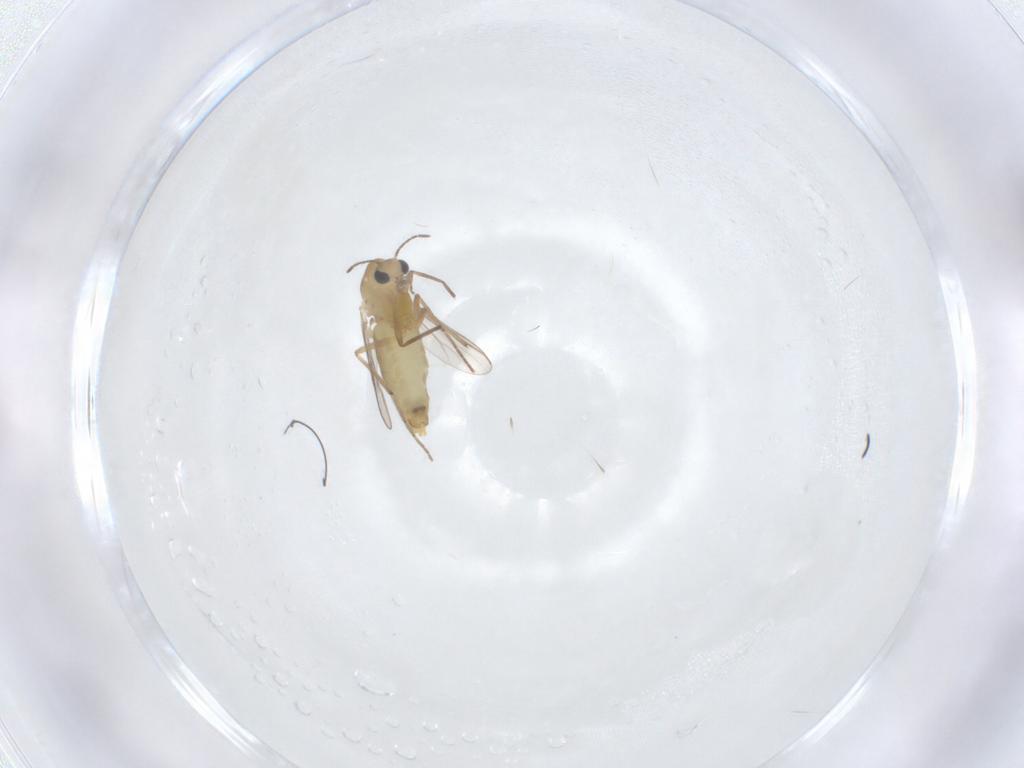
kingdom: Animalia
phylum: Arthropoda
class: Insecta
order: Diptera
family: Chironomidae
